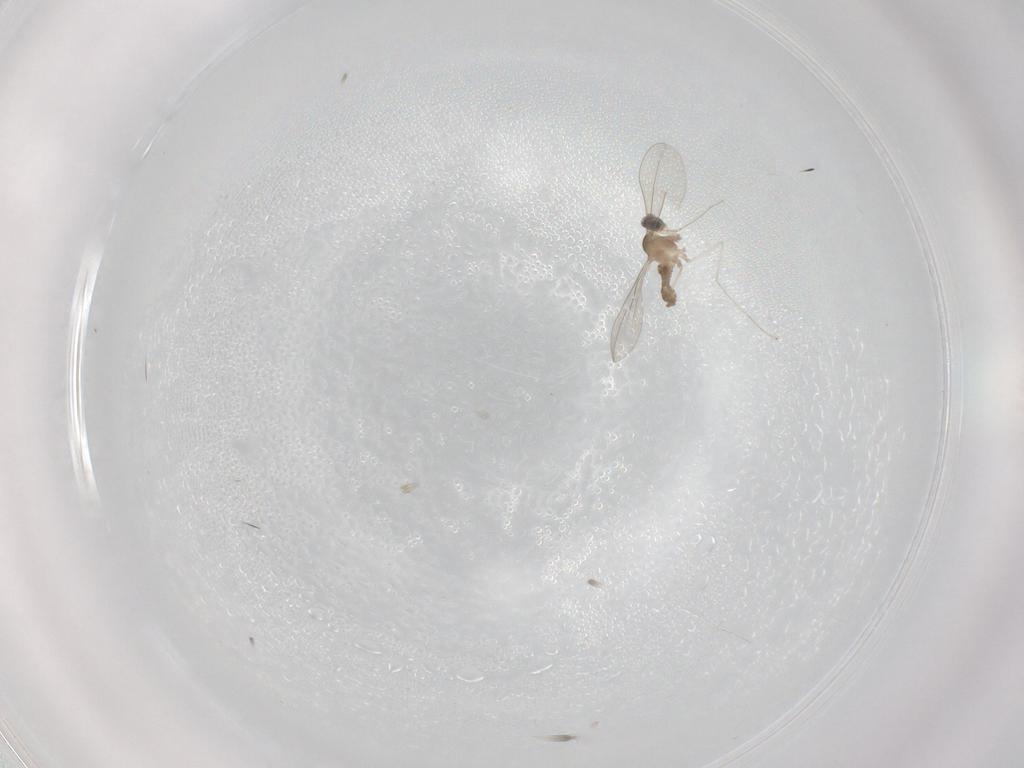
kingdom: Animalia
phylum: Arthropoda
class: Insecta
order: Diptera
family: Cecidomyiidae
